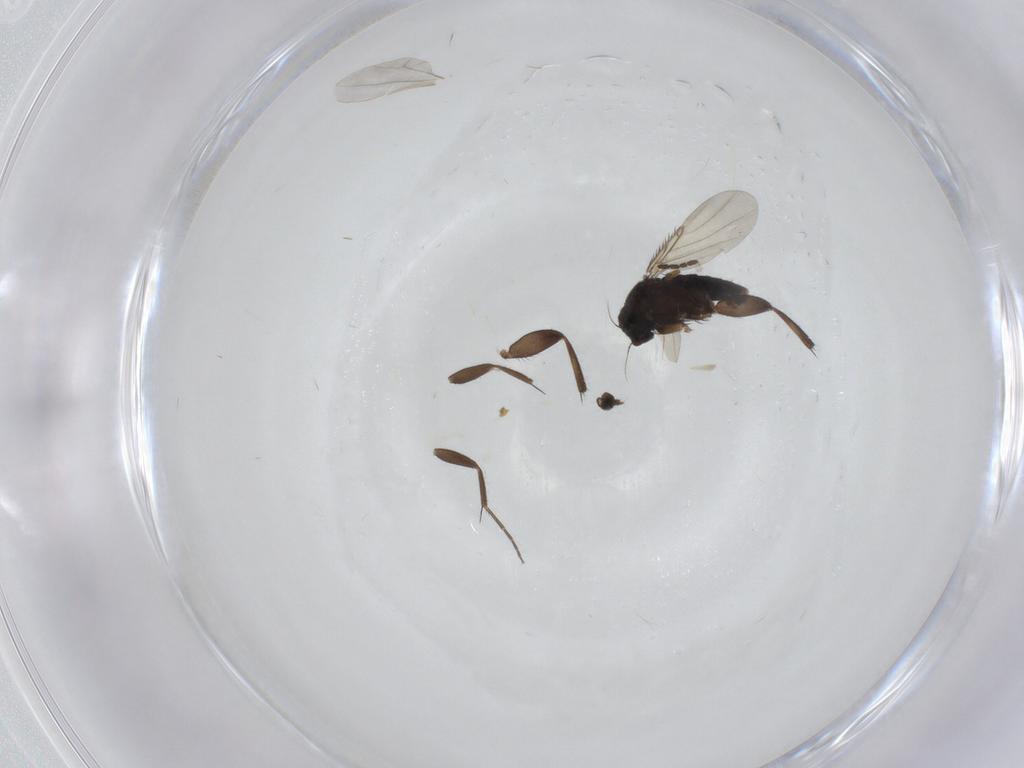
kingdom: Animalia
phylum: Arthropoda
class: Insecta
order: Diptera
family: Phoridae
